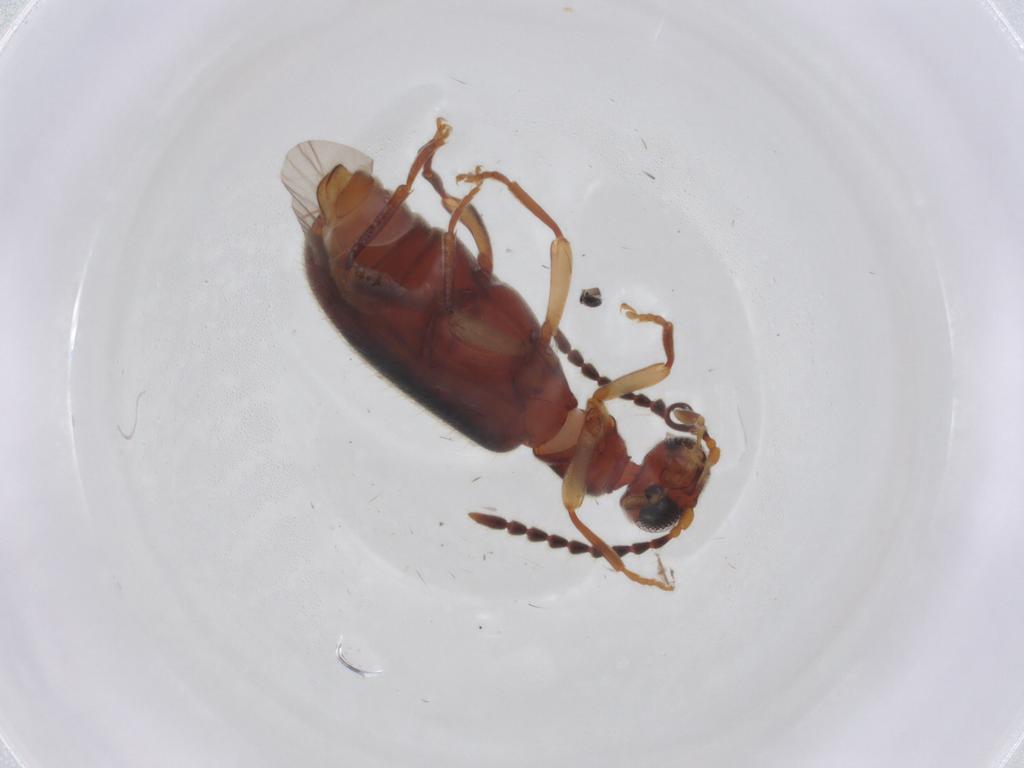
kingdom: Animalia
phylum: Arthropoda
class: Insecta
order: Coleoptera
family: Anthicidae
